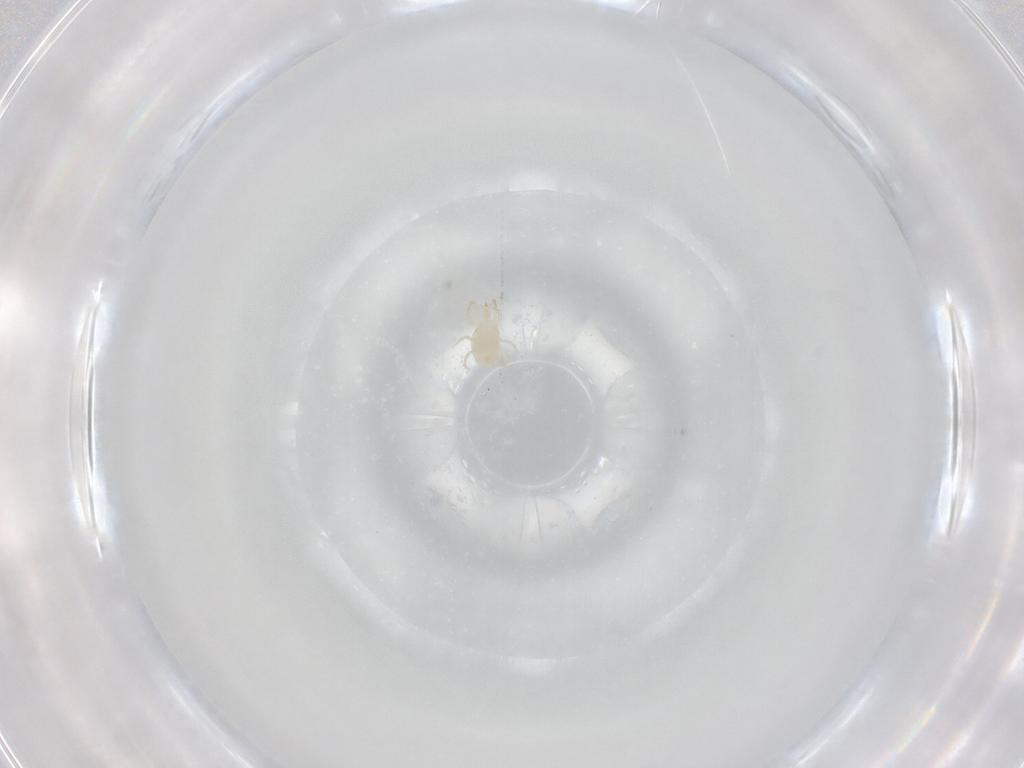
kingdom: Animalia
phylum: Arthropoda
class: Arachnida
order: Mesostigmata
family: Phytoseiidae
